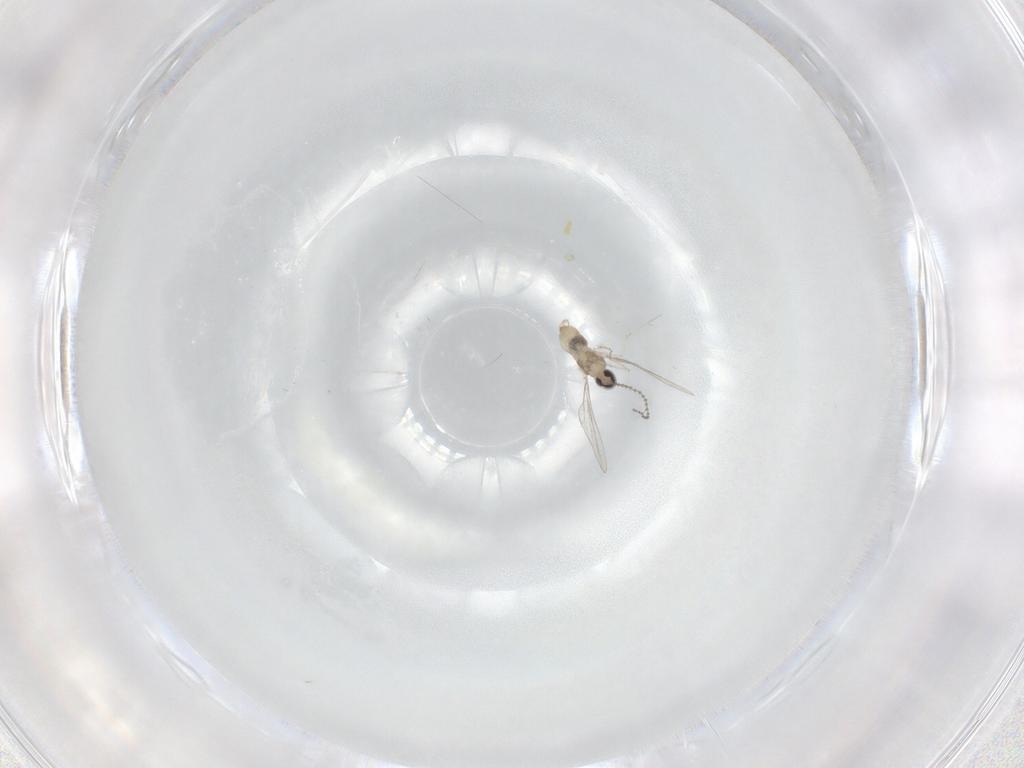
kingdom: Animalia
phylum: Arthropoda
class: Insecta
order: Diptera
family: Cecidomyiidae
